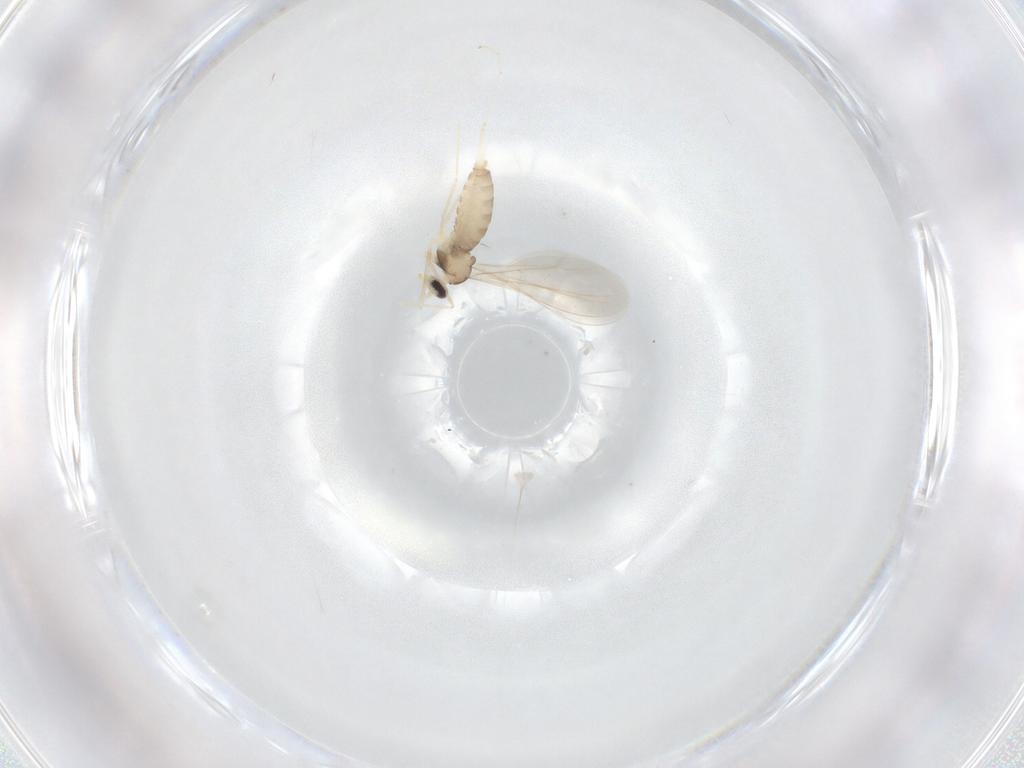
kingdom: Animalia
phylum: Arthropoda
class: Insecta
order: Diptera
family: Cecidomyiidae
